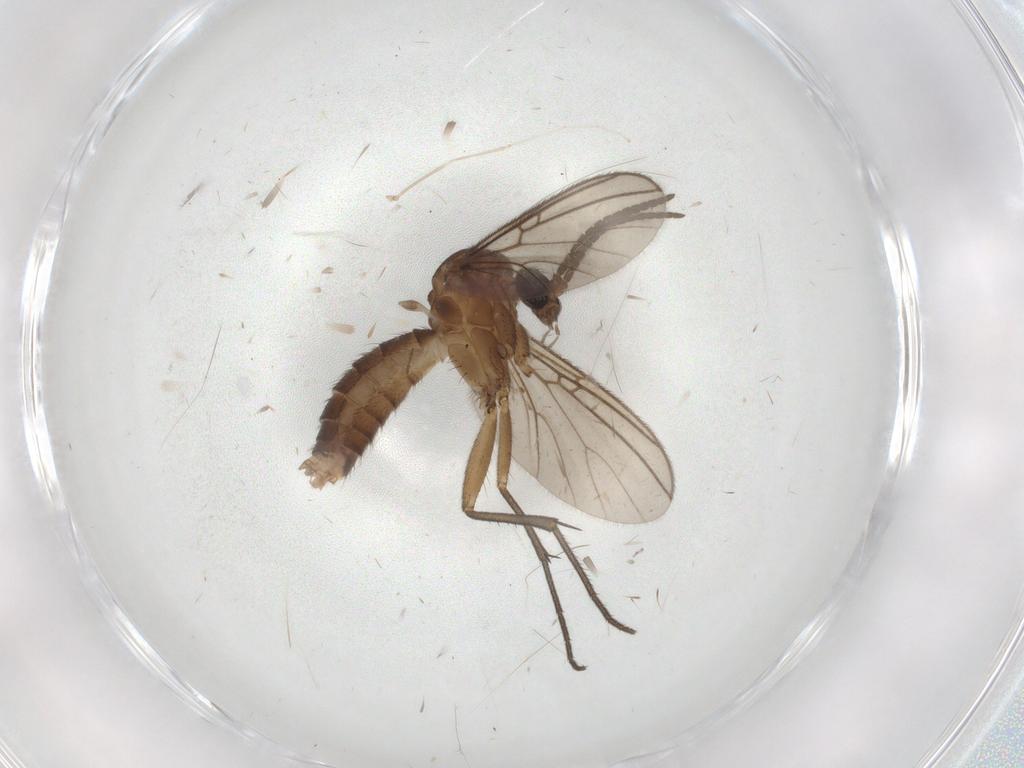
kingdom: Animalia
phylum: Arthropoda
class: Insecta
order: Diptera
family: Phoridae
